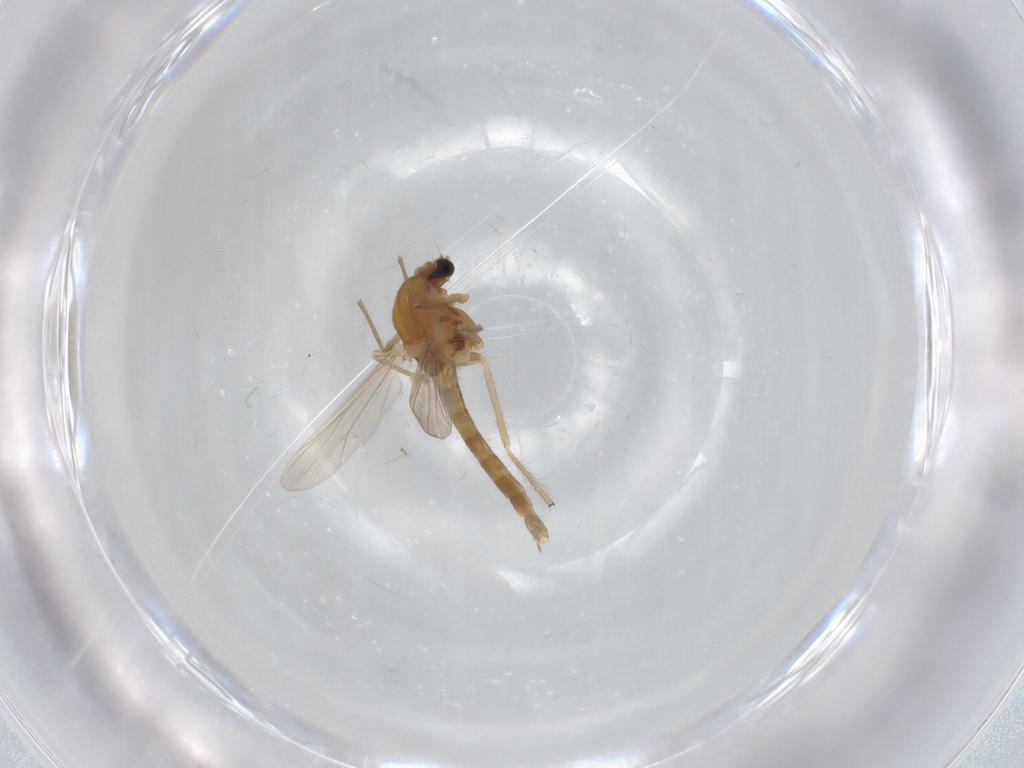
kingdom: Animalia
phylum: Arthropoda
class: Insecta
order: Diptera
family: Chironomidae
